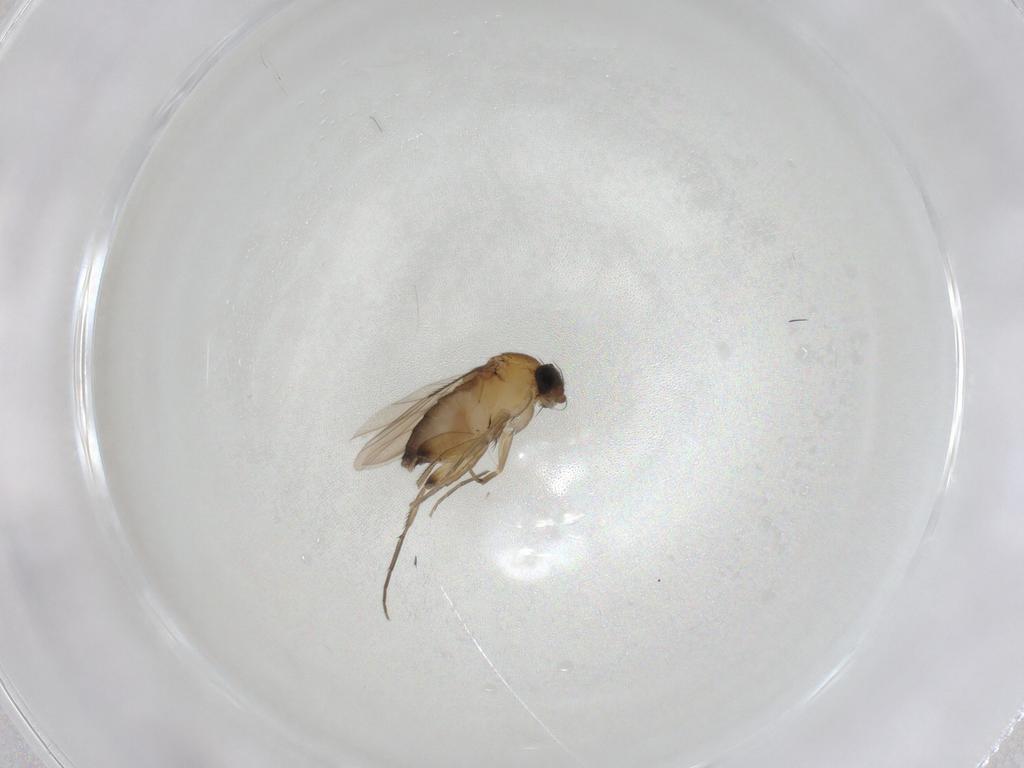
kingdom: Animalia
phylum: Arthropoda
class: Insecta
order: Diptera
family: Phoridae
